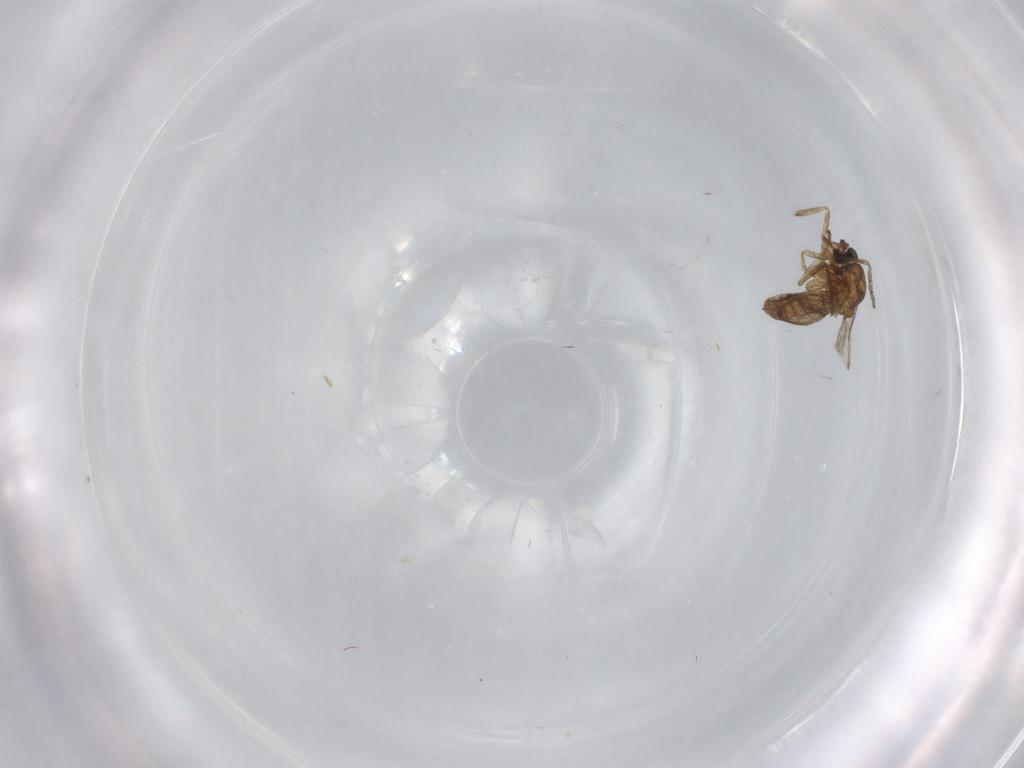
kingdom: Animalia
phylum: Arthropoda
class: Insecta
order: Diptera
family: Ceratopogonidae
